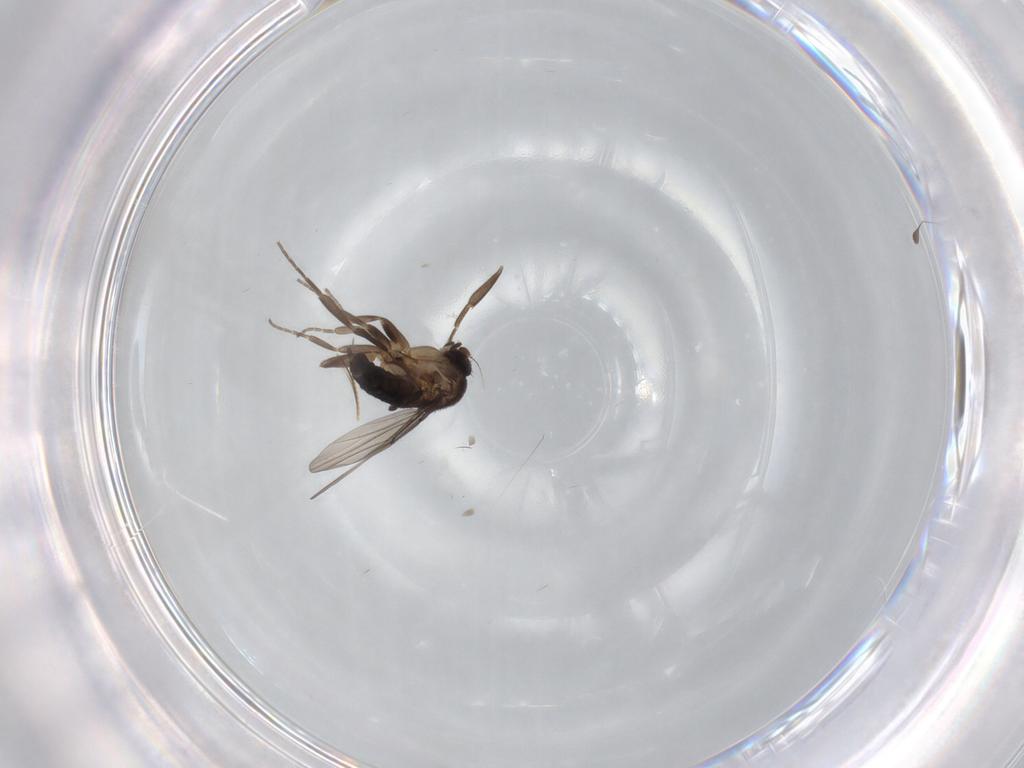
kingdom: Animalia
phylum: Arthropoda
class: Insecta
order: Diptera
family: Phoridae
